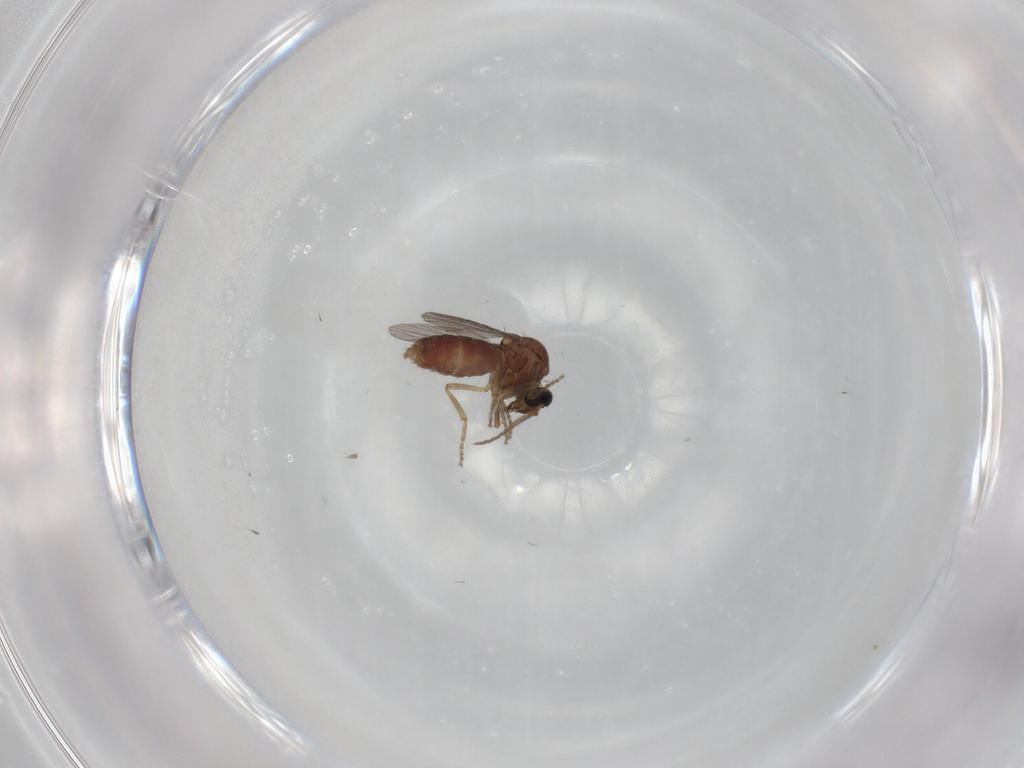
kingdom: Animalia
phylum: Arthropoda
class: Insecta
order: Diptera
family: Ceratopogonidae
